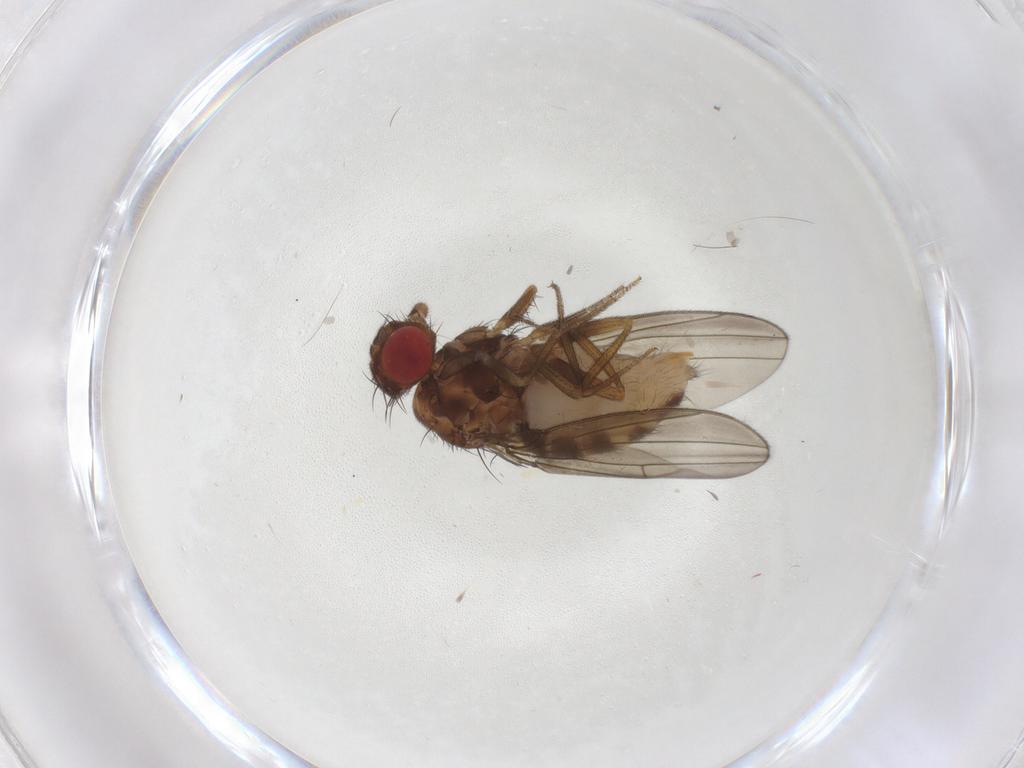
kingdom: Animalia
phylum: Arthropoda
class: Insecta
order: Diptera
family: Drosophilidae
